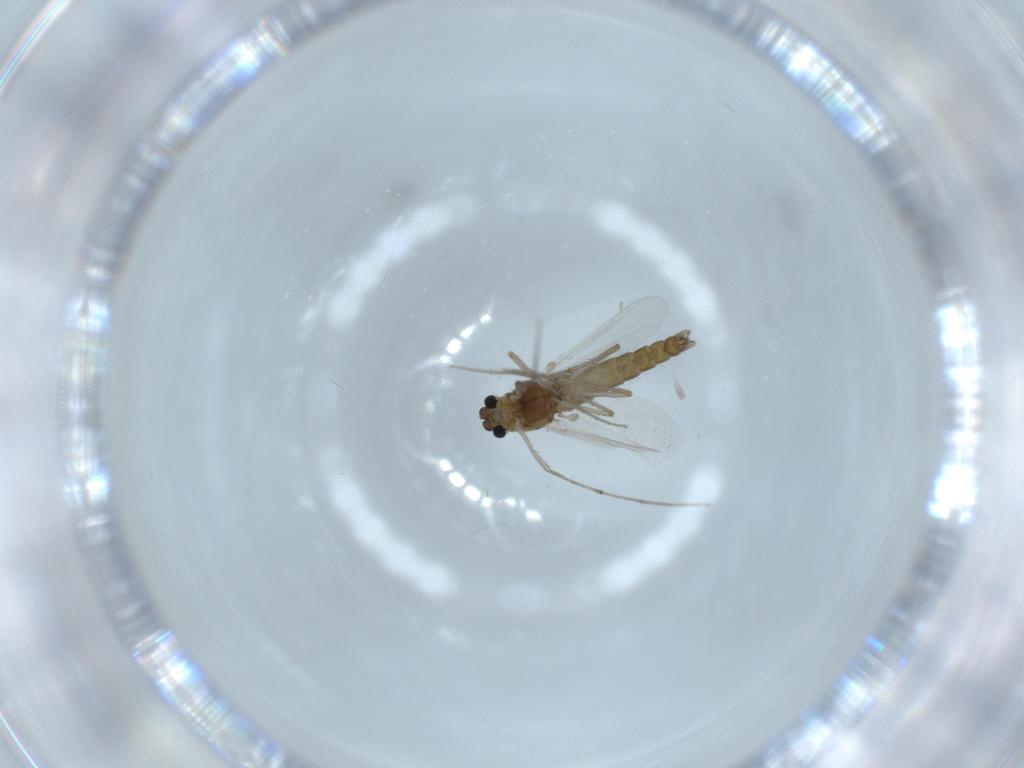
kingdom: Animalia
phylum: Arthropoda
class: Insecta
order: Diptera
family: Chironomidae
